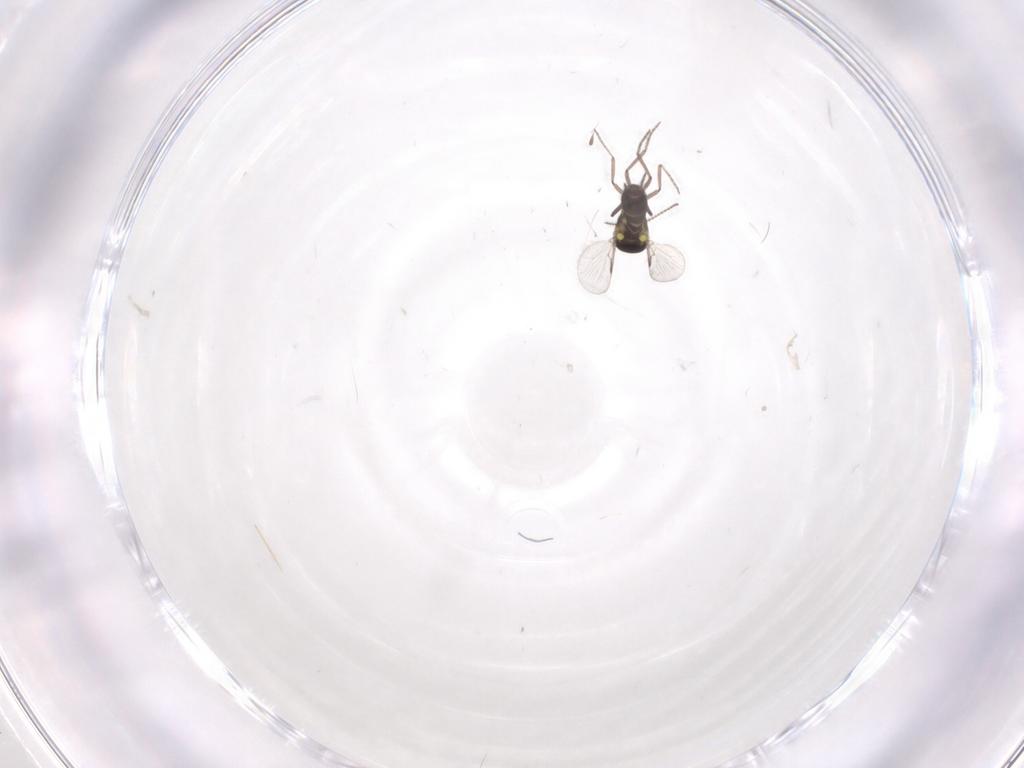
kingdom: Animalia
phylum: Arthropoda
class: Insecta
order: Diptera
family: Ceratopogonidae
